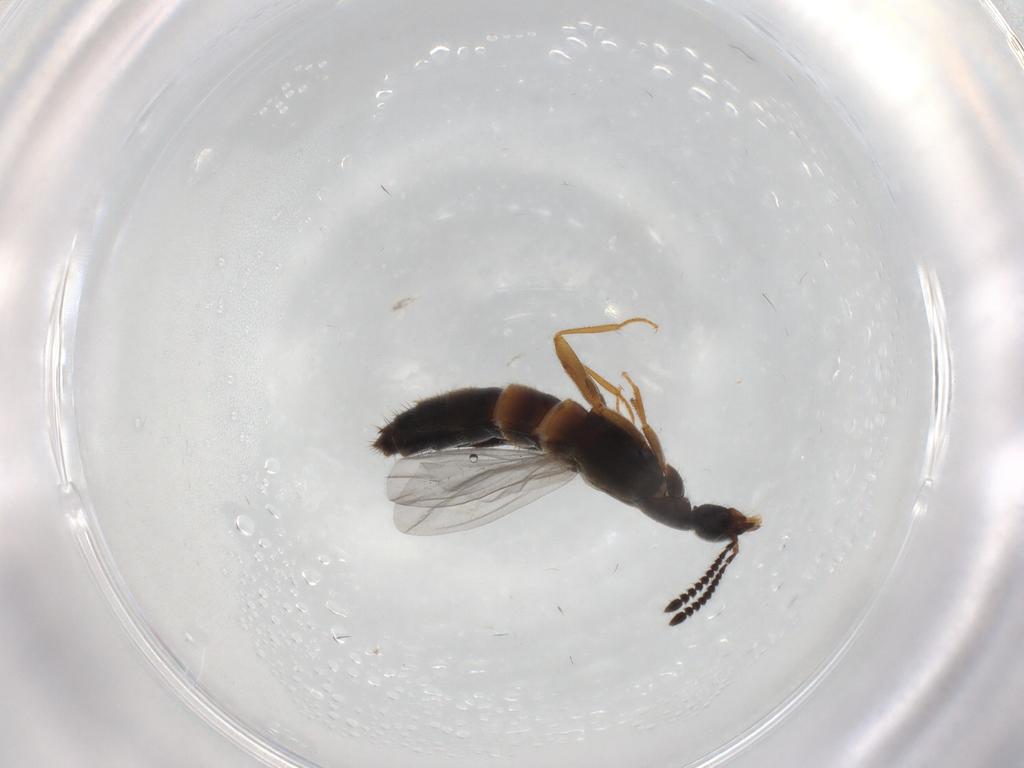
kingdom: Animalia
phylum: Arthropoda
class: Insecta
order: Coleoptera
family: Staphylinidae
